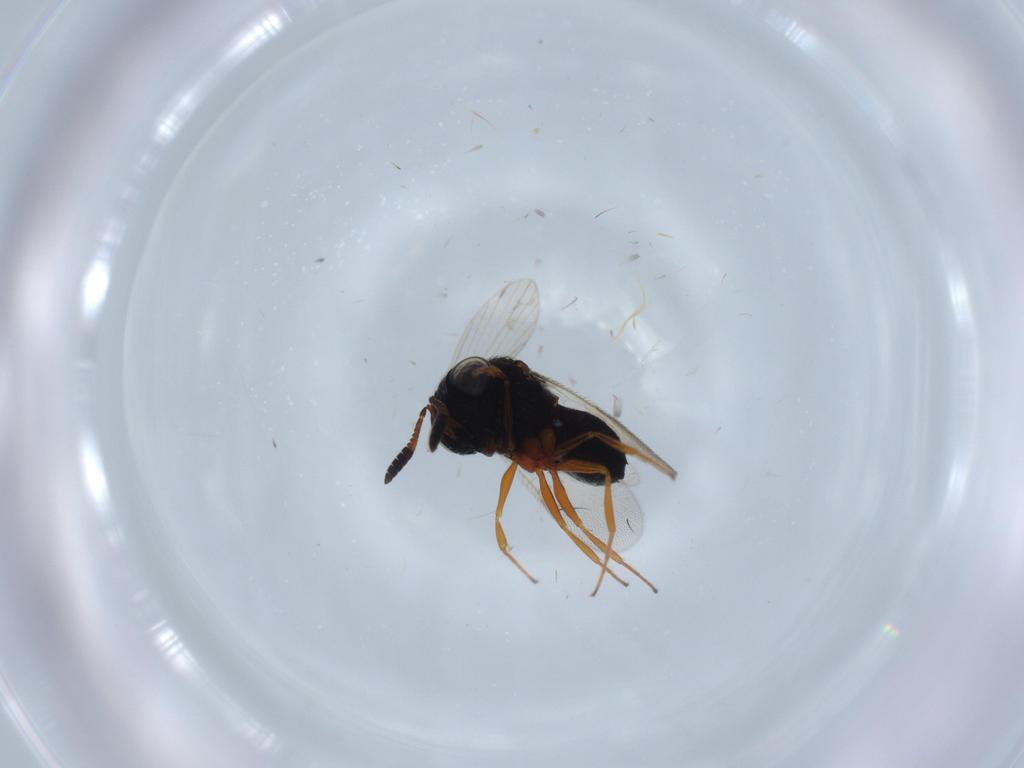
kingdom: Animalia
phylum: Arthropoda
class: Insecta
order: Hymenoptera
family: Scelionidae
